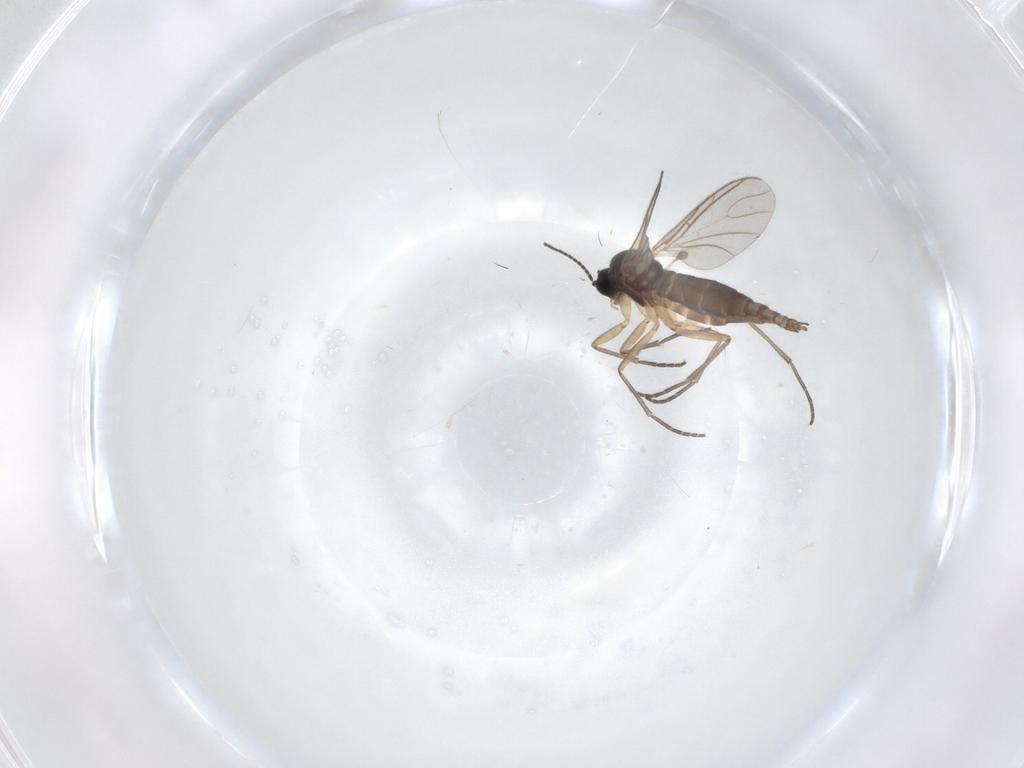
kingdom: Animalia
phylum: Arthropoda
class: Insecta
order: Diptera
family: Sciaridae
